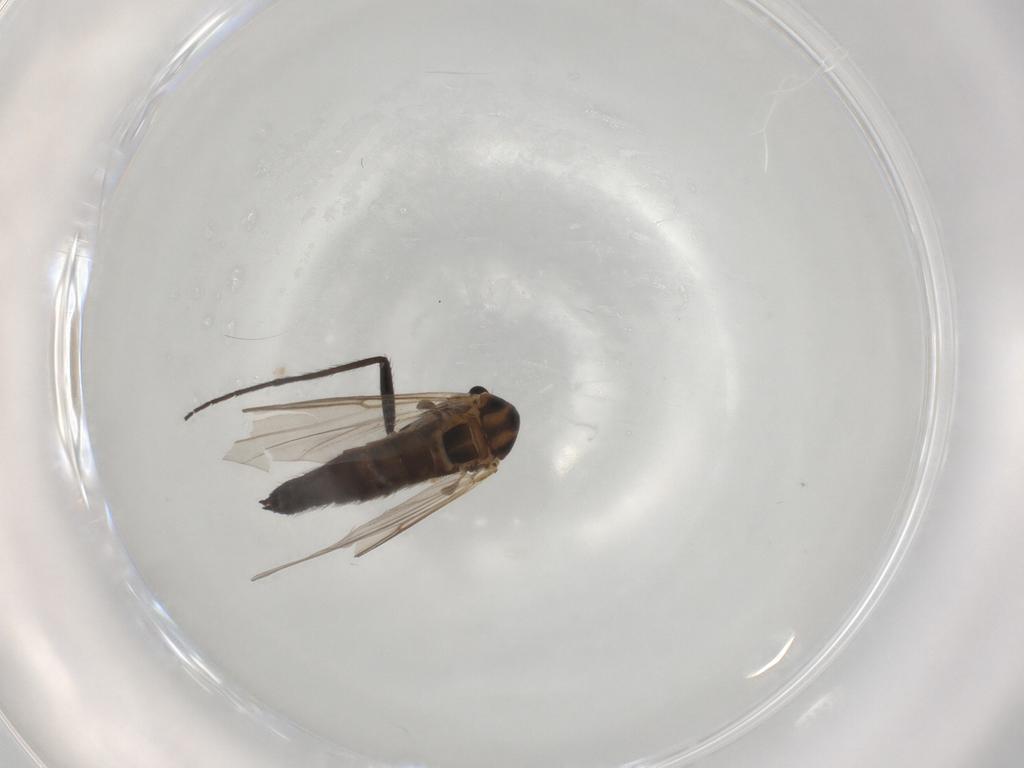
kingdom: Animalia
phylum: Arthropoda
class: Insecta
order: Diptera
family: Chironomidae
